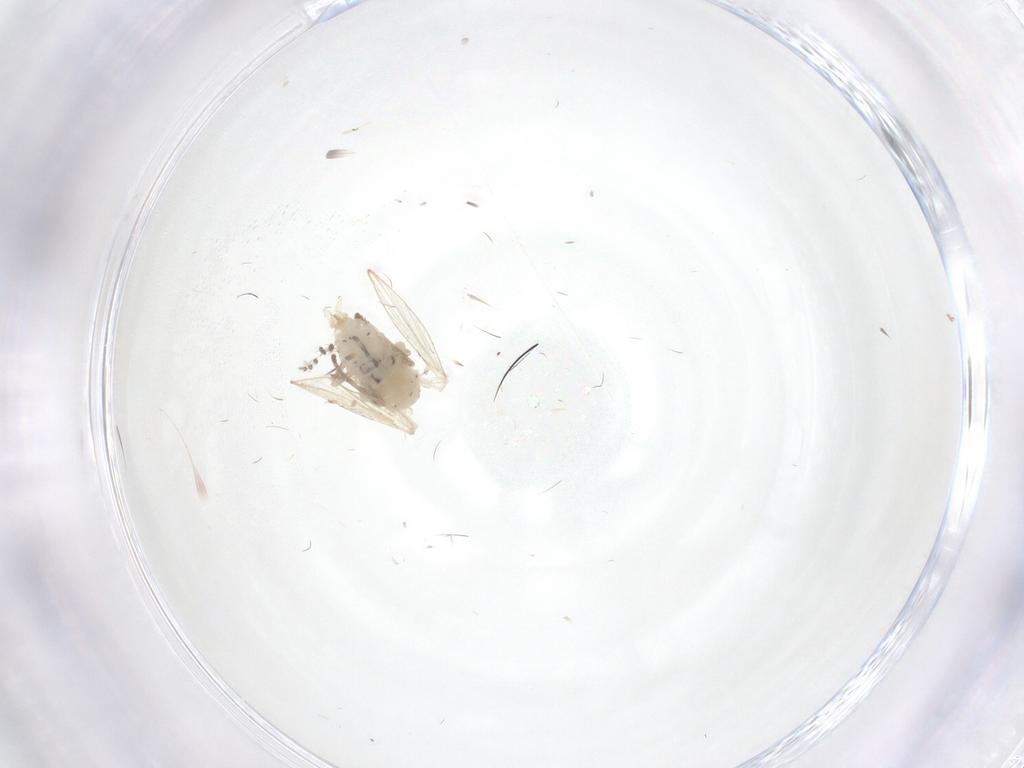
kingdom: Animalia
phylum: Arthropoda
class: Insecta
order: Diptera
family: Psychodidae
